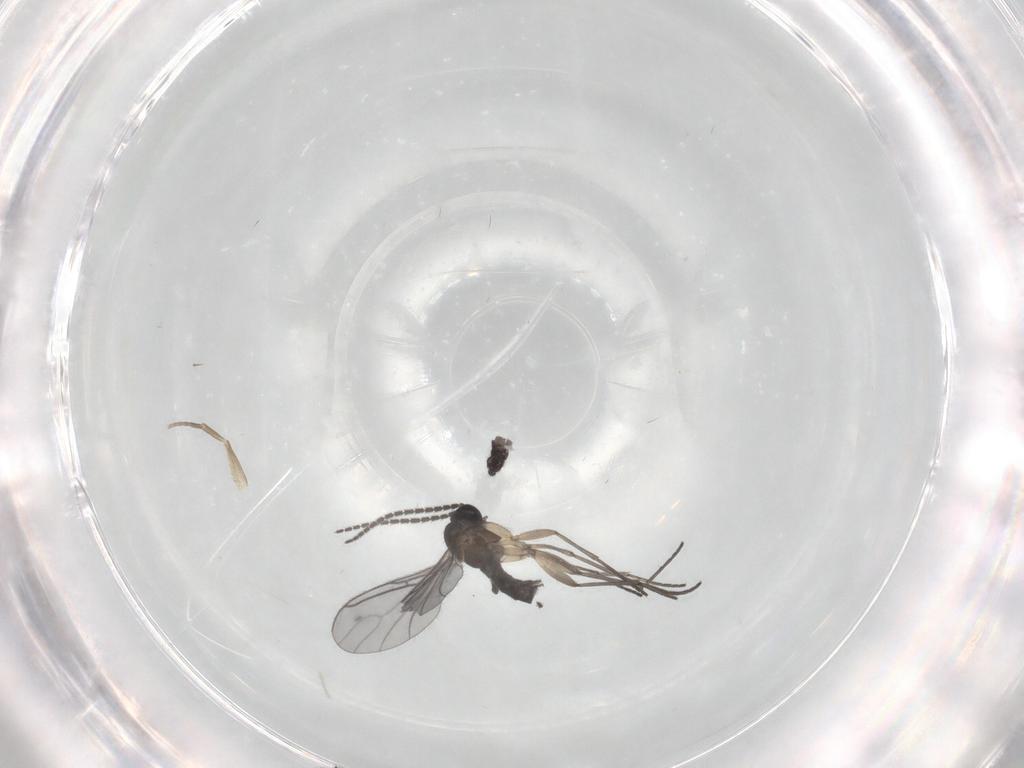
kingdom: Animalia
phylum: Arthropoda
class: Insecta
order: Diptera
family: Sciaridae
